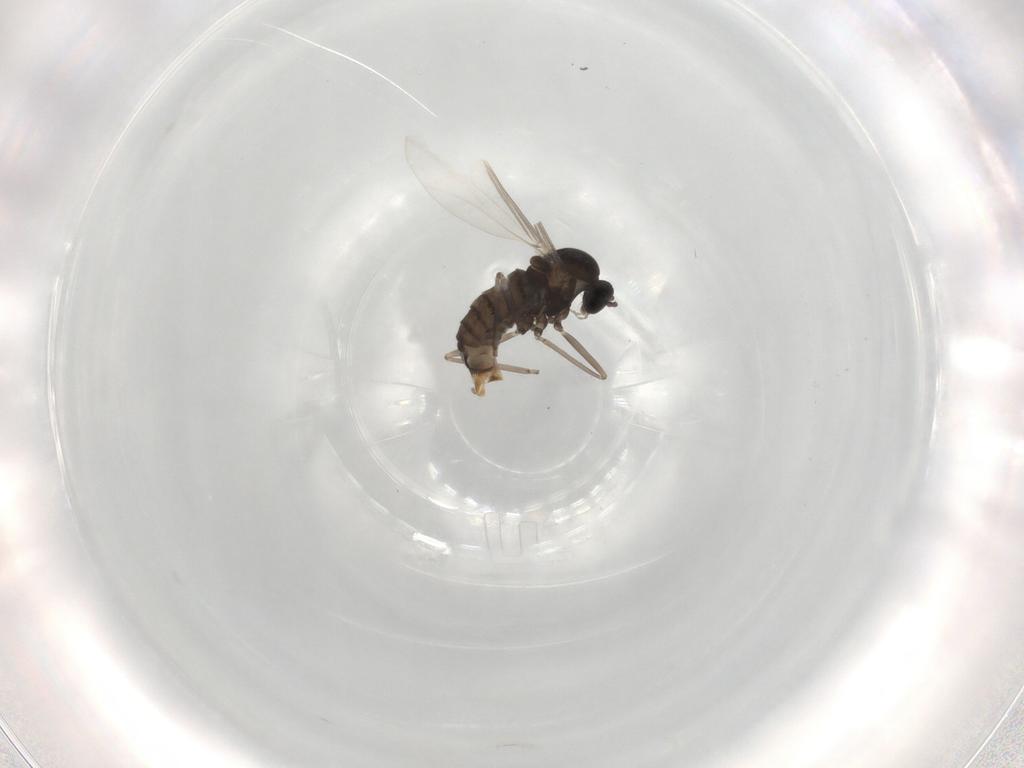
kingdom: Animalia
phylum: Arthropoda
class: Insecta
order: Diptera
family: Cecidomyiidae
